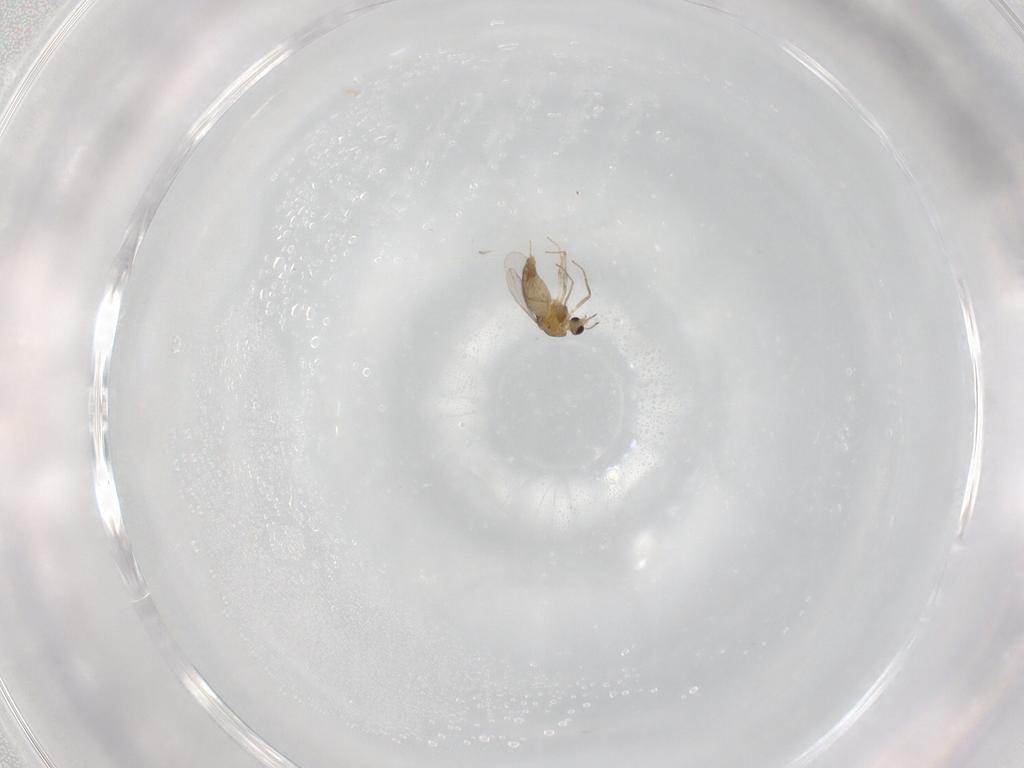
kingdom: Animalia
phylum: Arthropoda
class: Insecta
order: Diptera
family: Chironomidae
